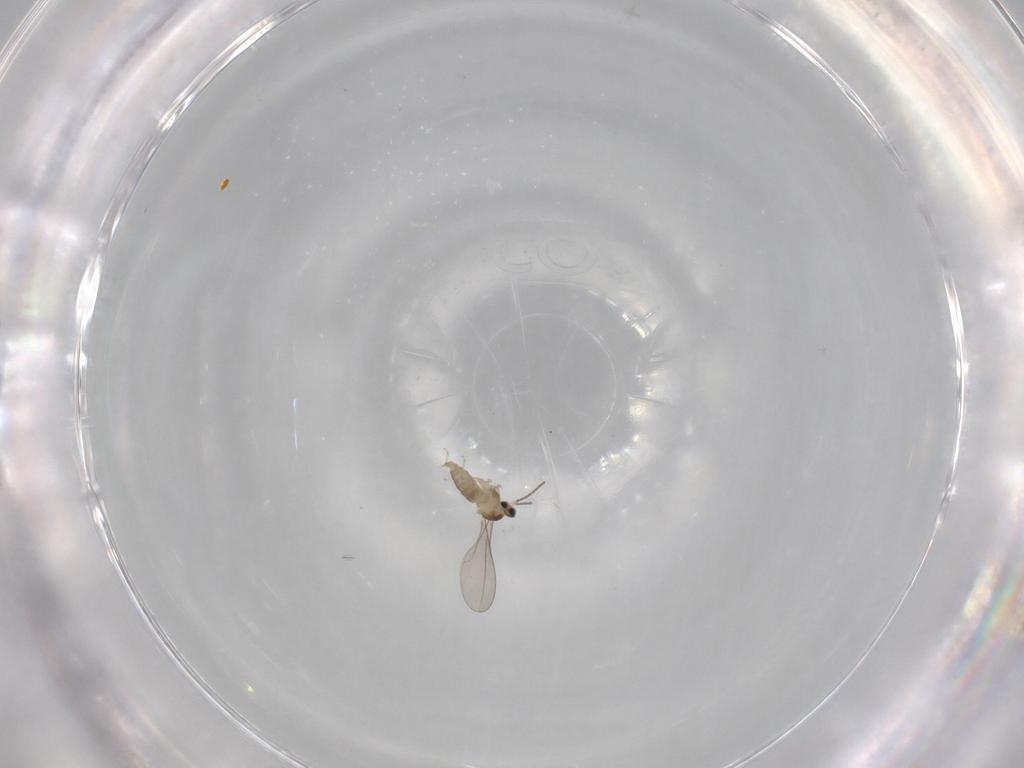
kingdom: Animalia
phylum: Arthropoda
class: Insecta
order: Diptera
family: Cecidomyiidae
